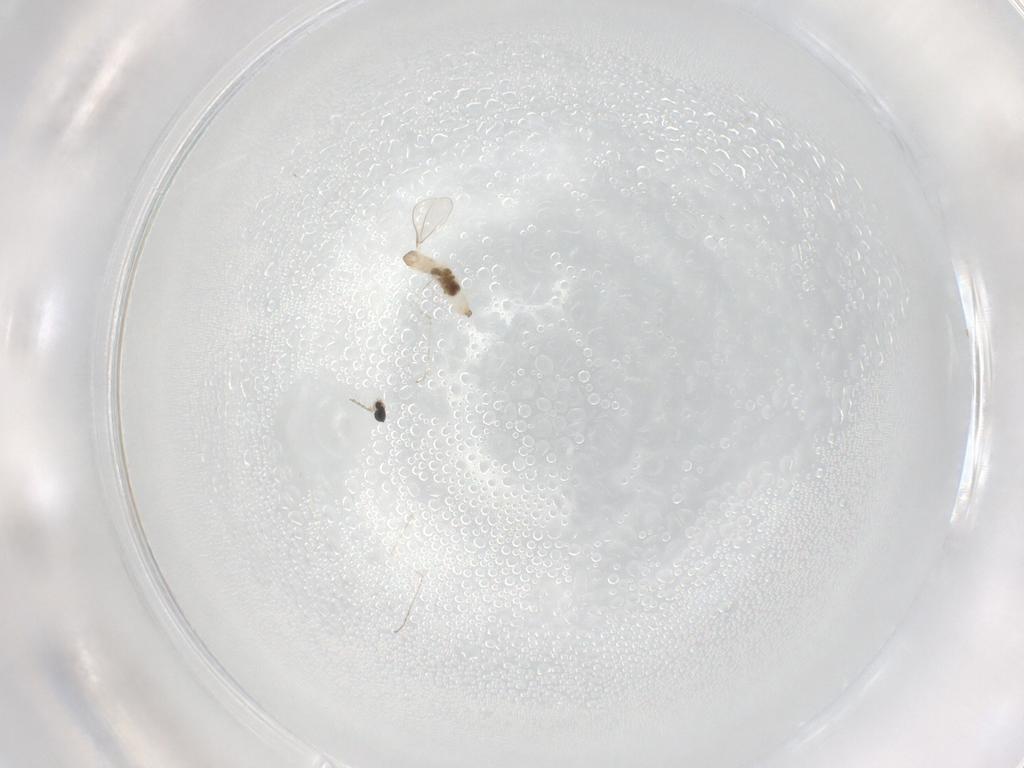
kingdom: Animalia
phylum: Arthropoda
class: Insecta
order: Diptera
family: Cecidomyiidae
